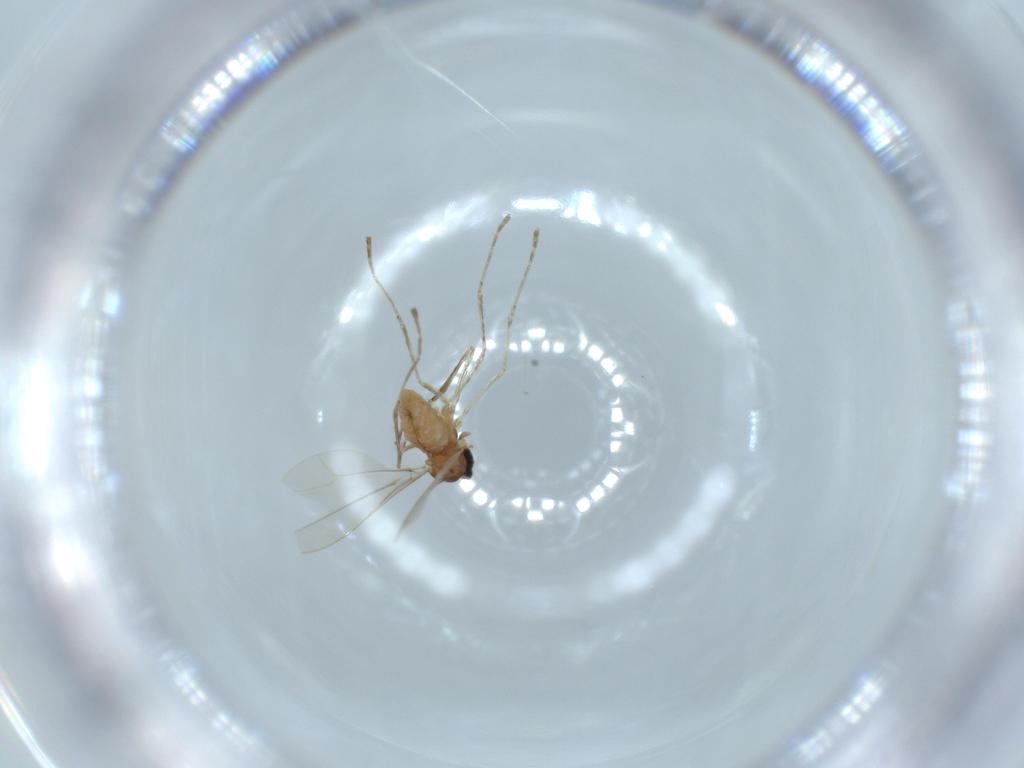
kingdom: Animalia
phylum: Arthropoda
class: Insecta
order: Diptera
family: Cecidomyiidae
